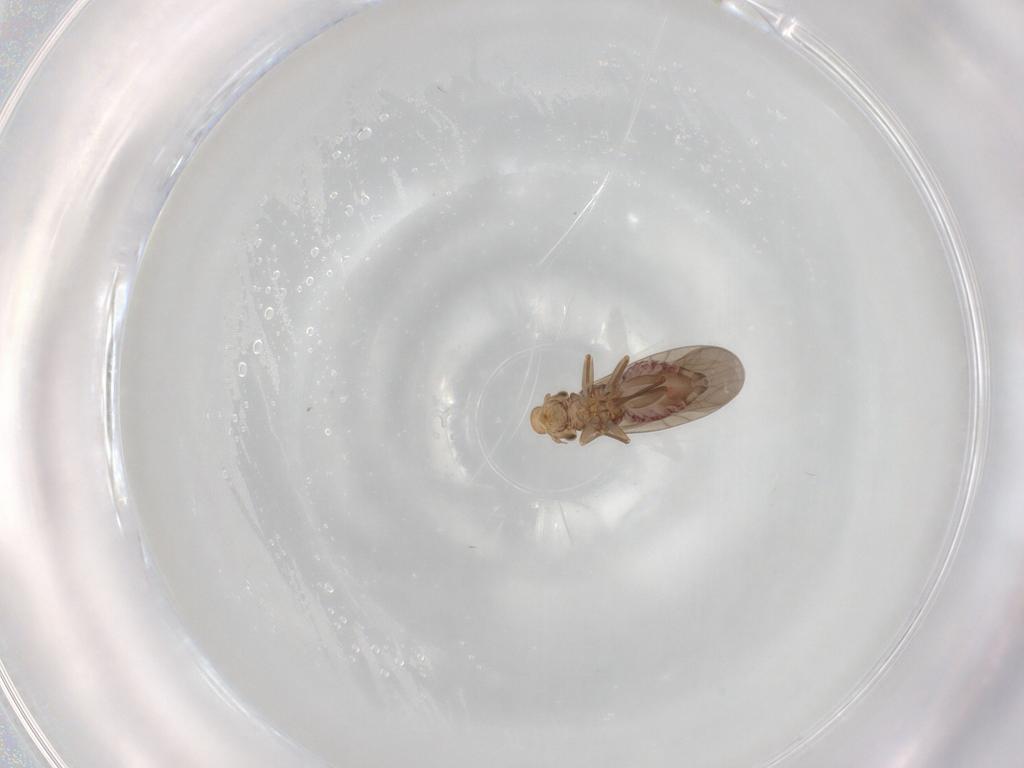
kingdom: Animalia
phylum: Arthropoda
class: Insecta
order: Psocodea
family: Lepidopsocidae
